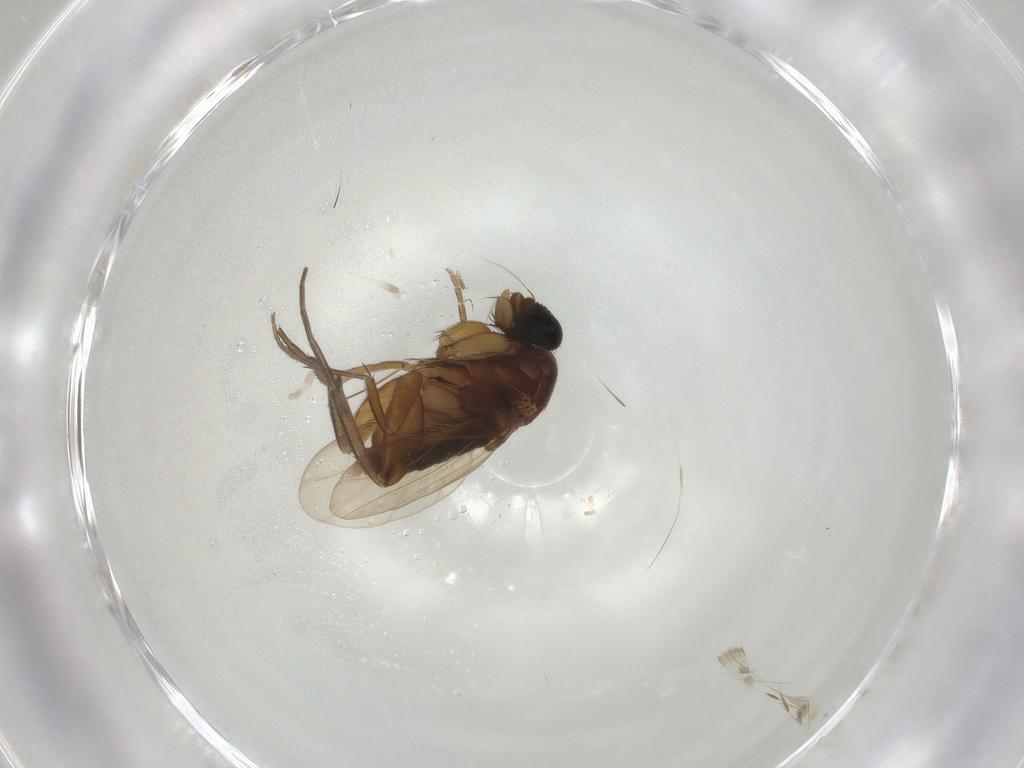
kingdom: Animalia
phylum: Arthropoda
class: Insecta
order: Diptera
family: Phoridae
